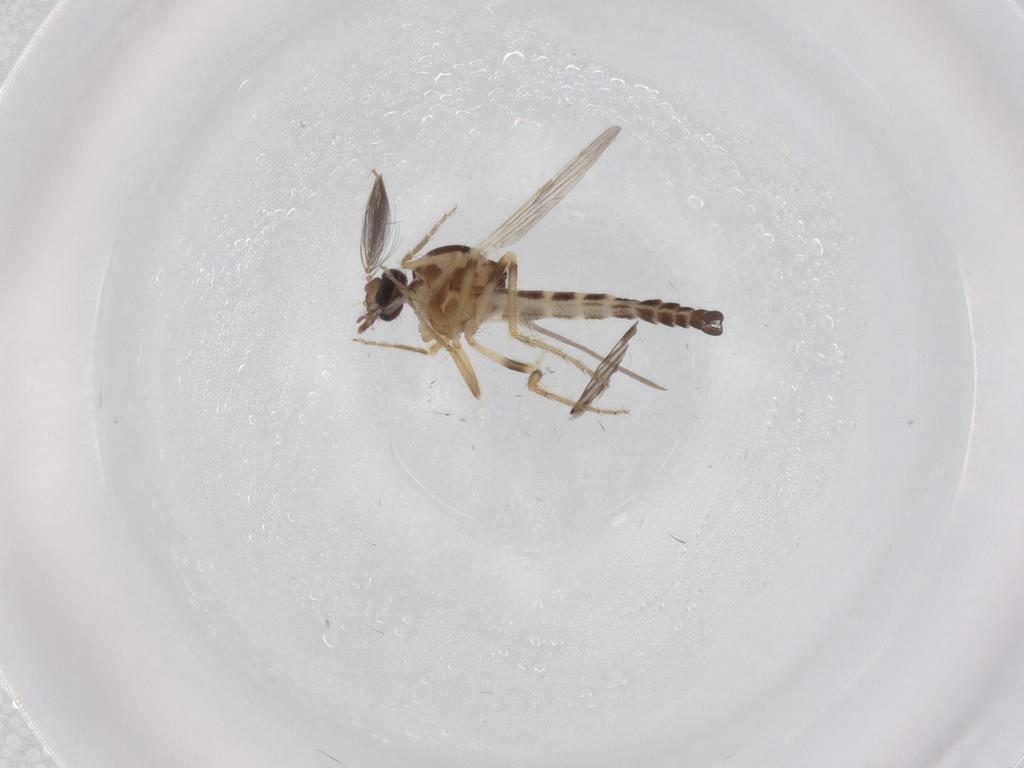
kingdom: Animalia
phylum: Arthropoda
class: Insecta
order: Diptera
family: Ceratopogonidae
